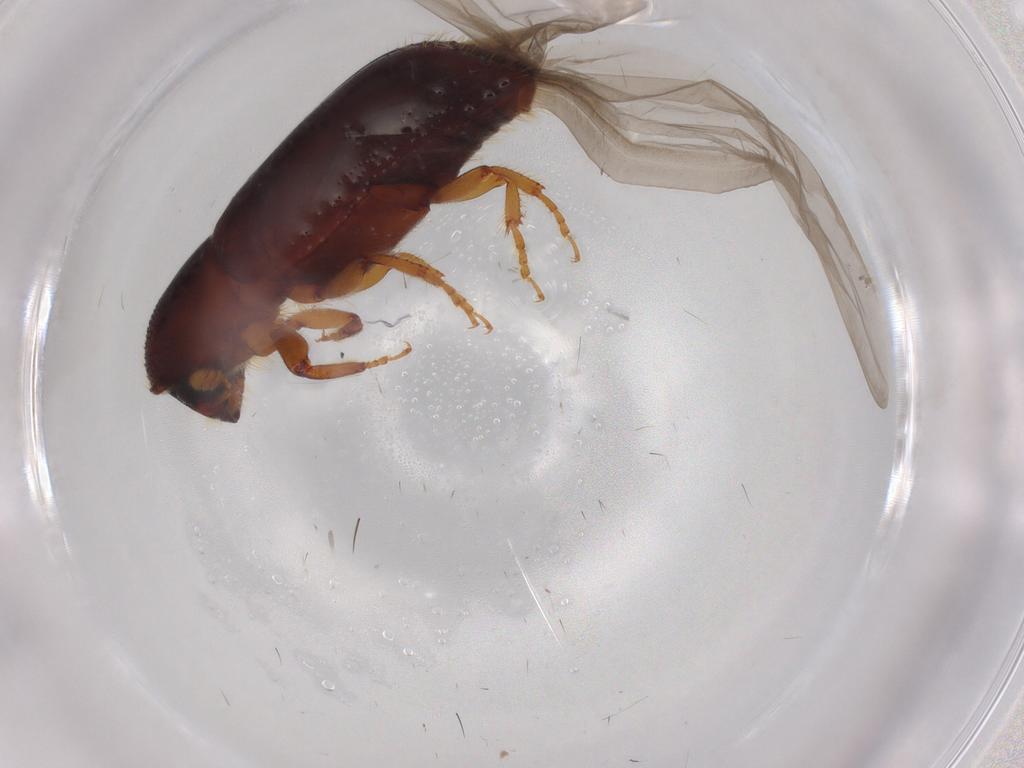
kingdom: Animalia
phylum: Arthropoda
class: Insecta
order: Coleoptera
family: Curculionidae
